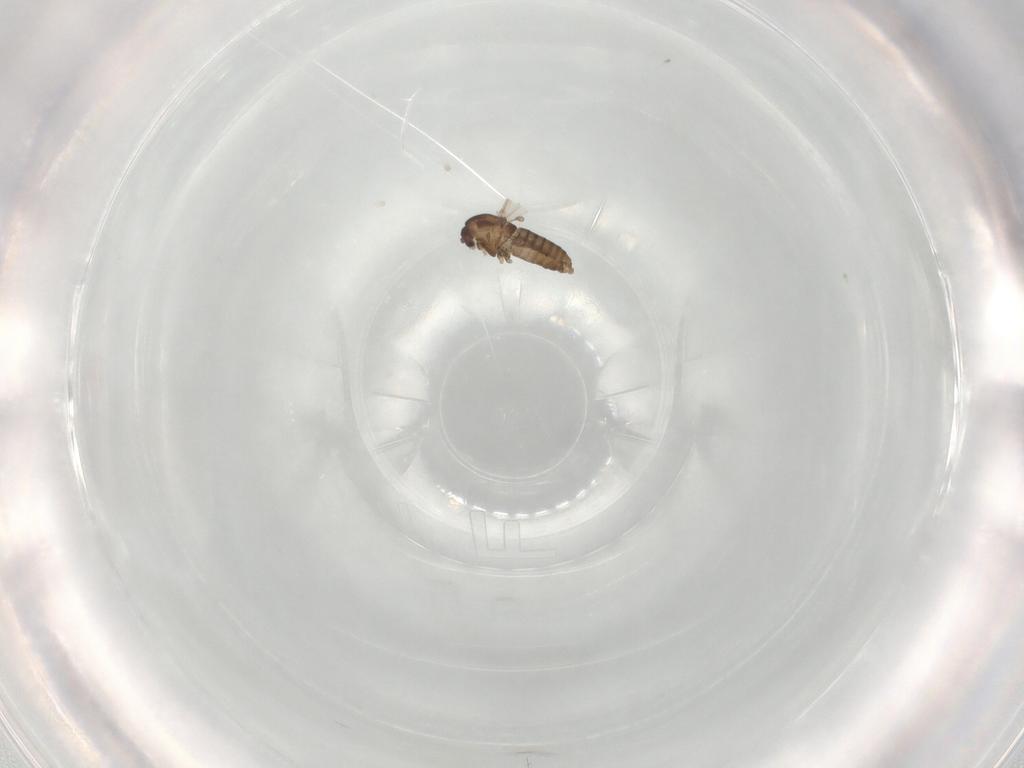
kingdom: Animalia
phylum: Arthropoda
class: Insecta
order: Diptera
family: Chironomidae
